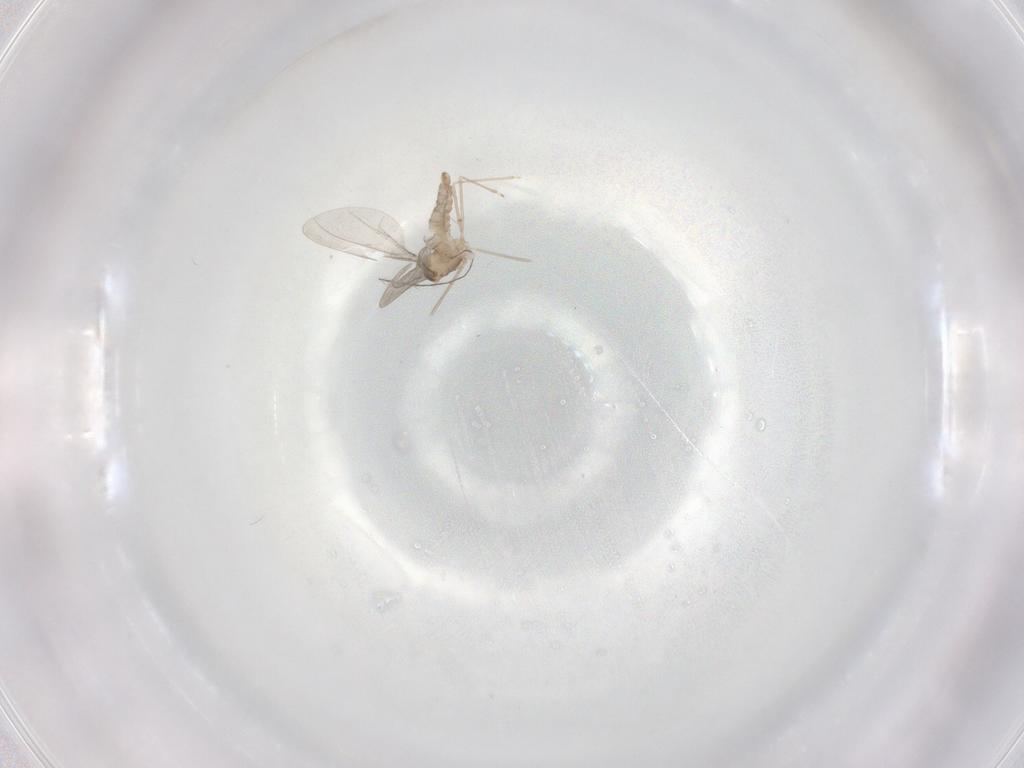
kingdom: Animalia
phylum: Arthropoda
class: Insecta
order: Diptera
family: Cecidomyiidae
